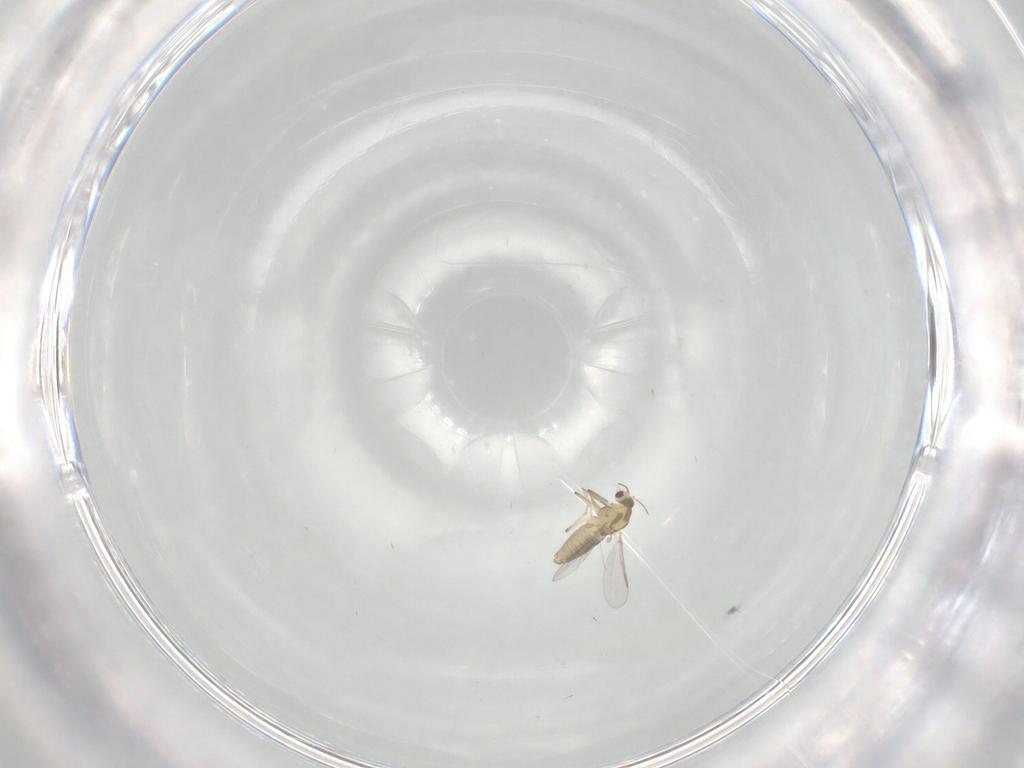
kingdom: Animalia
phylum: Arthropoda
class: Insecta
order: Diptera
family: Chironomidae
